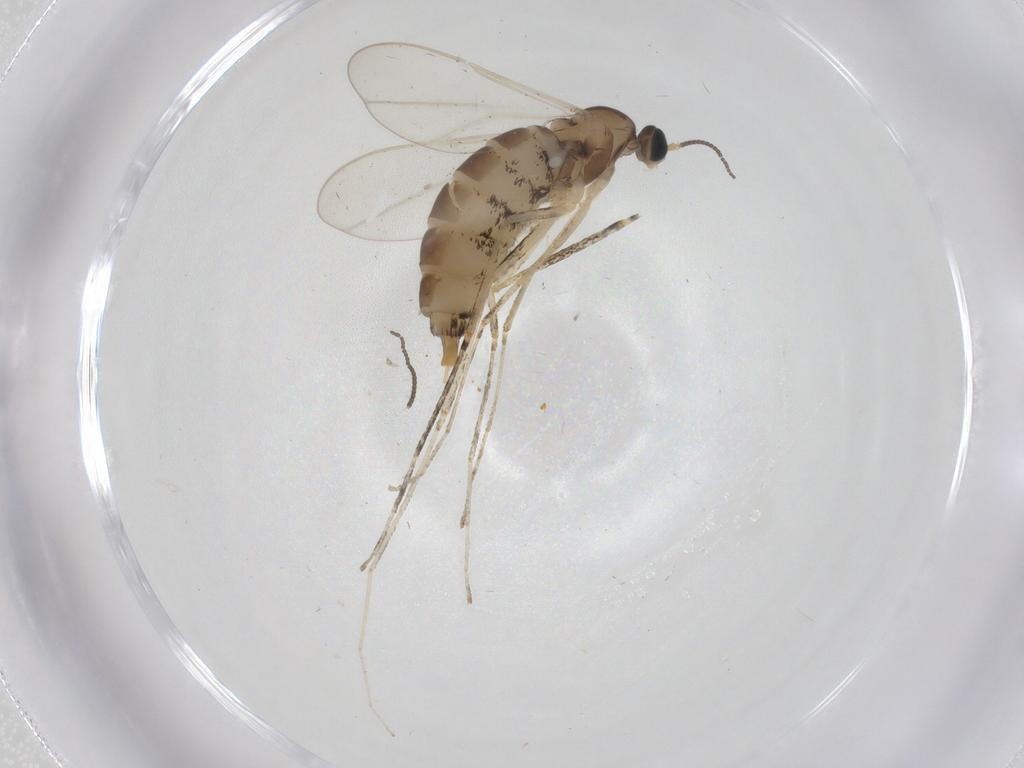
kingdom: Animalia
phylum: Arthropoda
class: Insecta
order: Diptera
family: Cecidomyiidae
